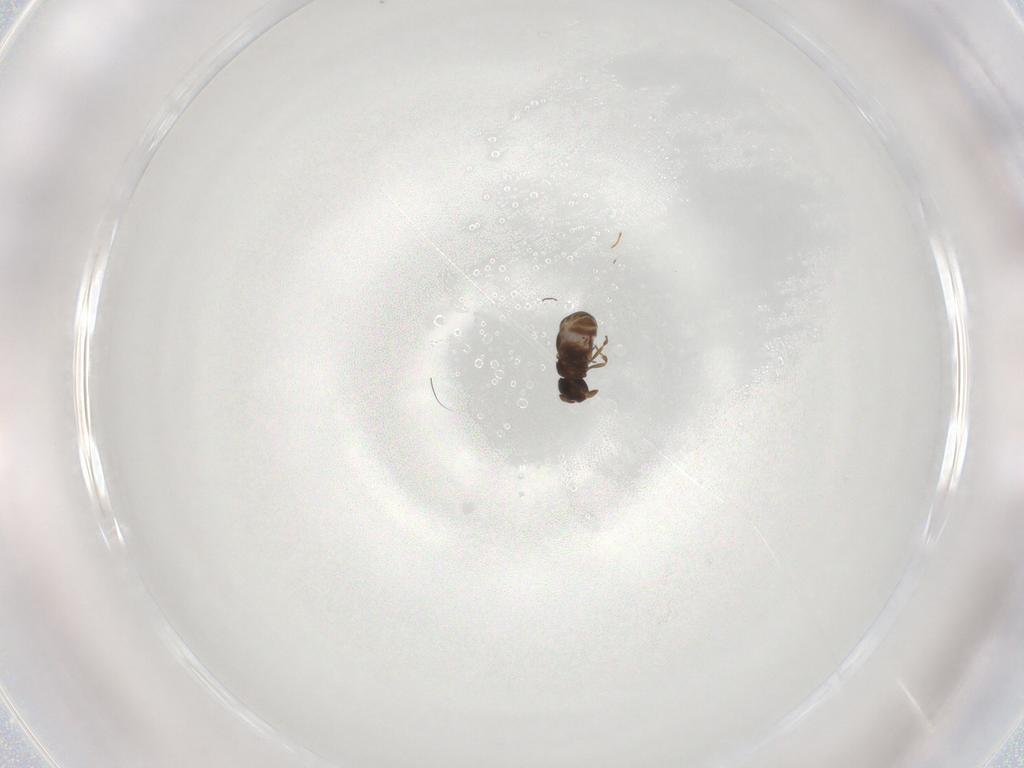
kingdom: Animalia
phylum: Arthropoda
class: Insecta
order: Hymenoptera
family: Scelionidae
